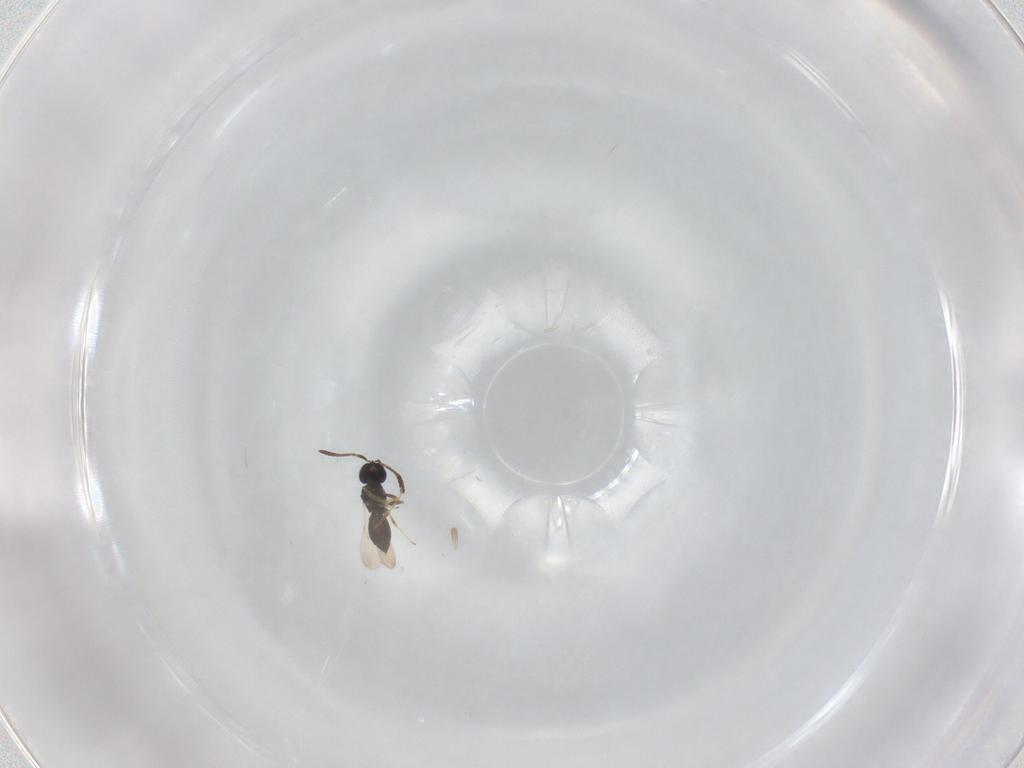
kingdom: Animalia
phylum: Arthropoda
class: Insecta
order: Hymenoptera
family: Scelionidae
